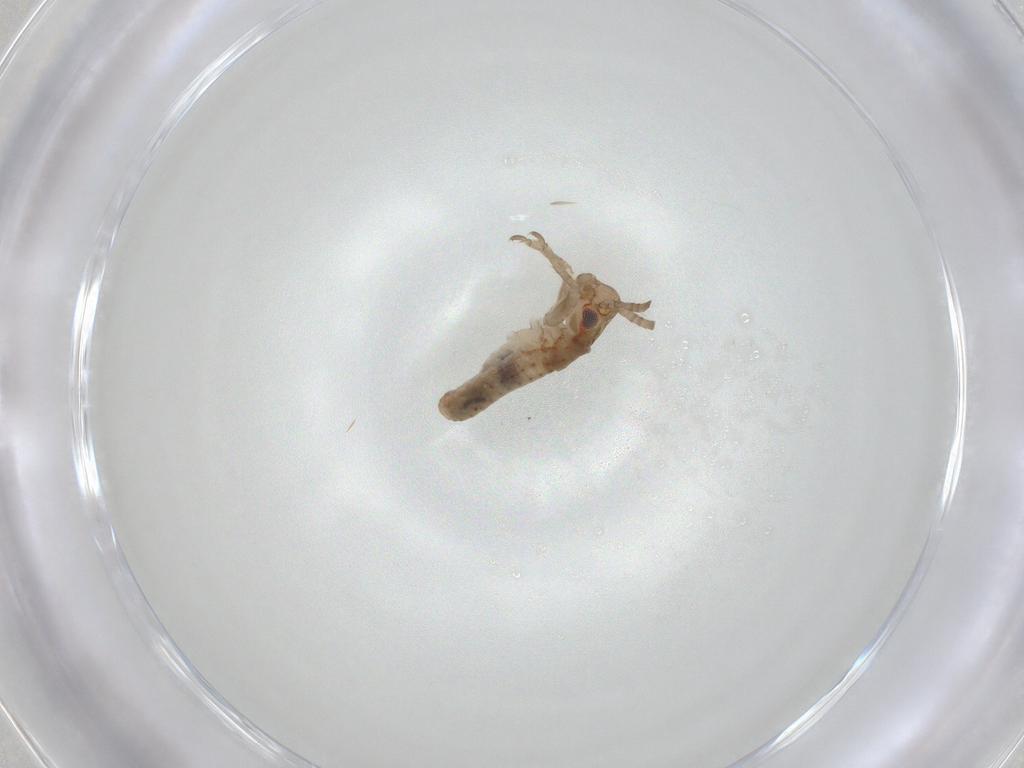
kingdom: Animalia
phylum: Arthropoda
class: Insecta
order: Orthoptera
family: Mogoplistidae
